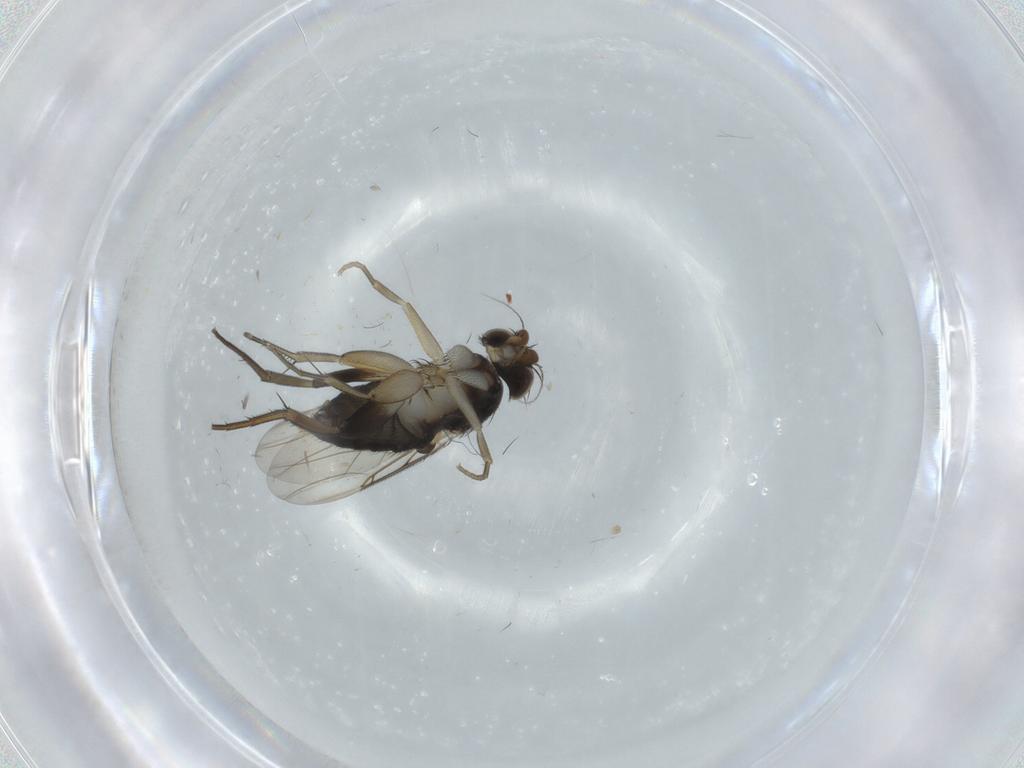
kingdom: Animalia
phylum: Arthropoda
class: Insecta
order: Diptera
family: Phoridae
